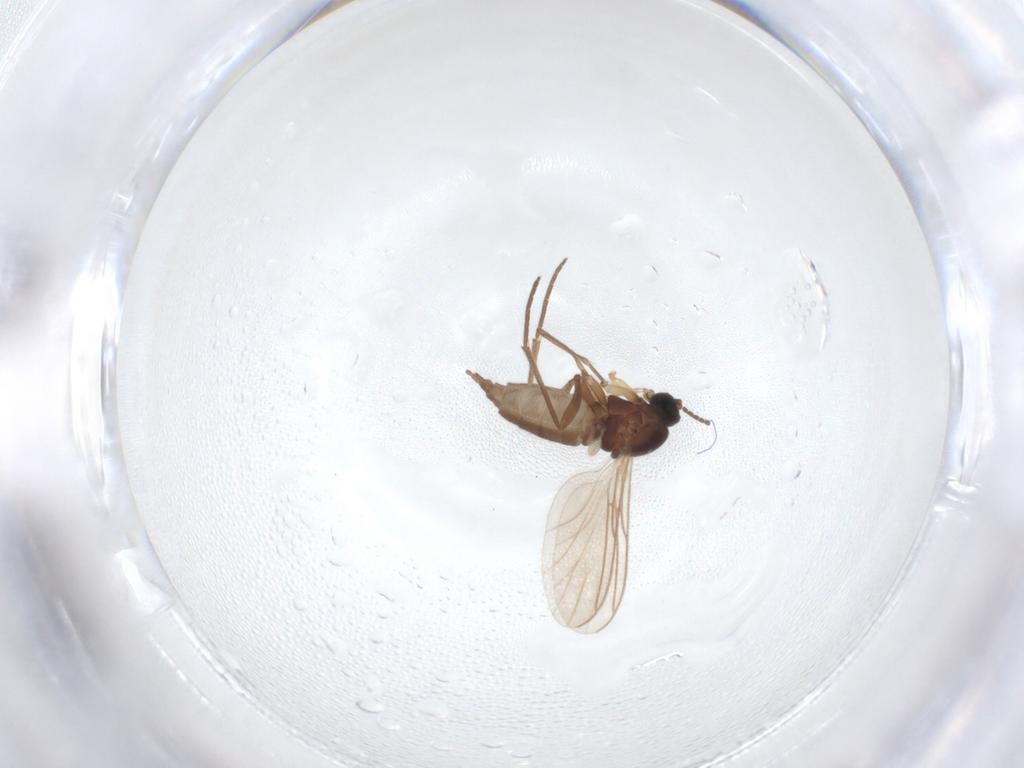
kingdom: Animalia
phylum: Arthropoda
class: Insecta
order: Diptera
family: Sciaridae
